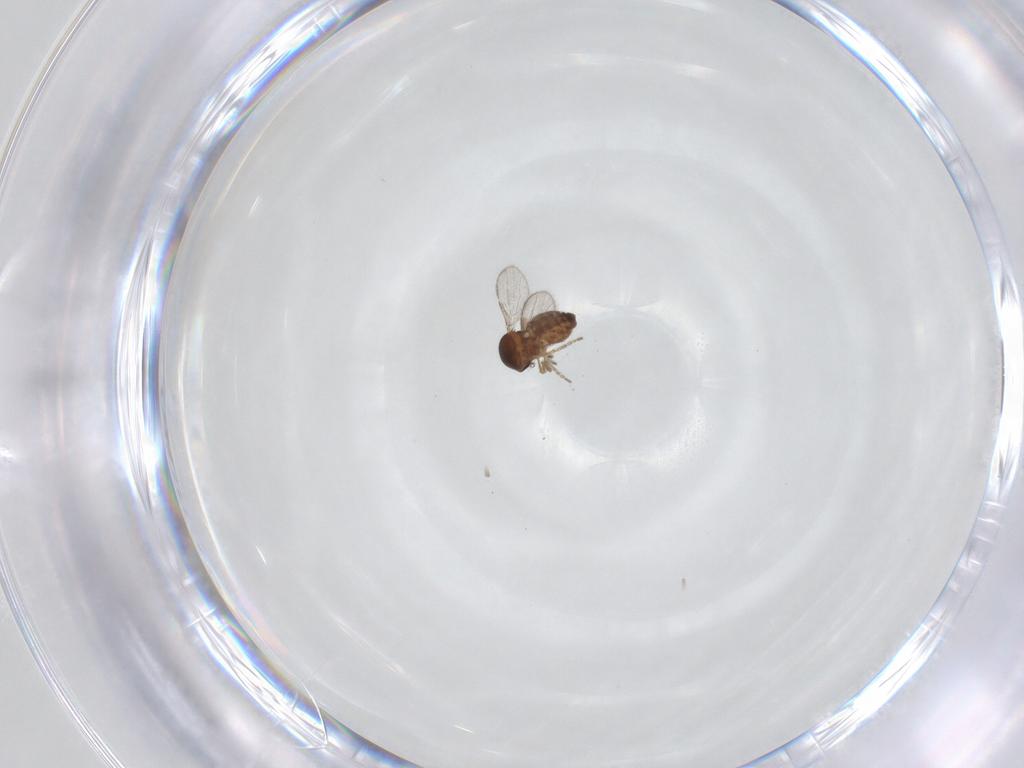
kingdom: Animalia
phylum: Arthropoda
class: Insecta
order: Diptera
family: Ceratopogonidae
